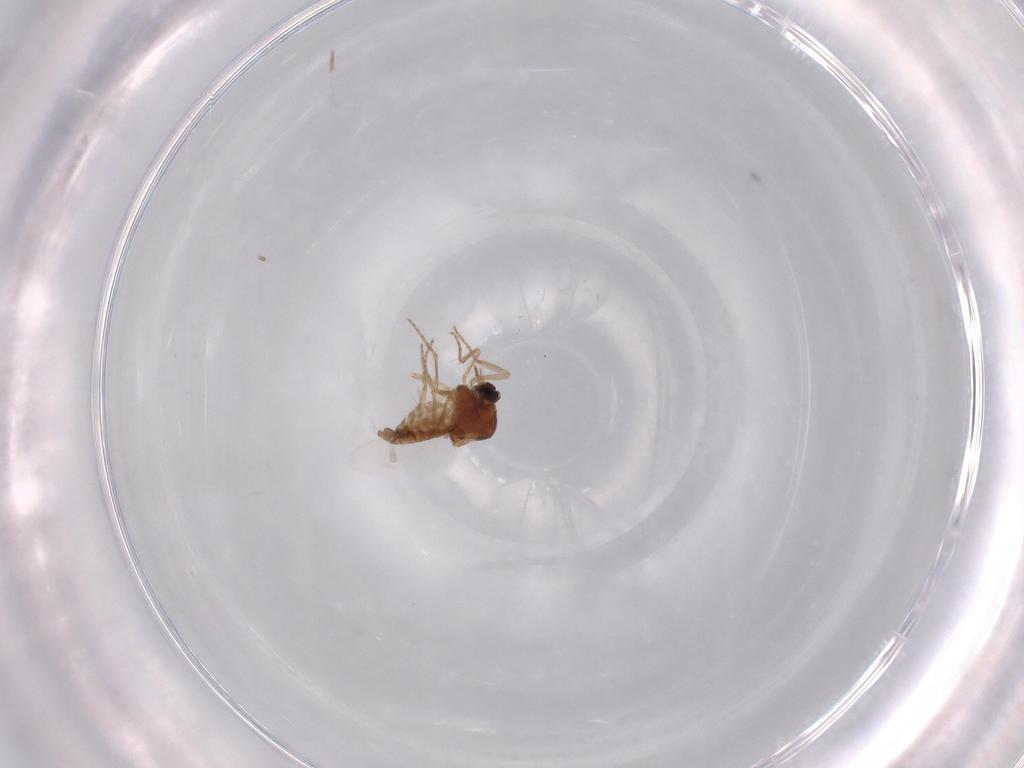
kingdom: Animalia
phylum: Arthropoda
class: Insecta
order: Diptera
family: Ceratopogonidae
